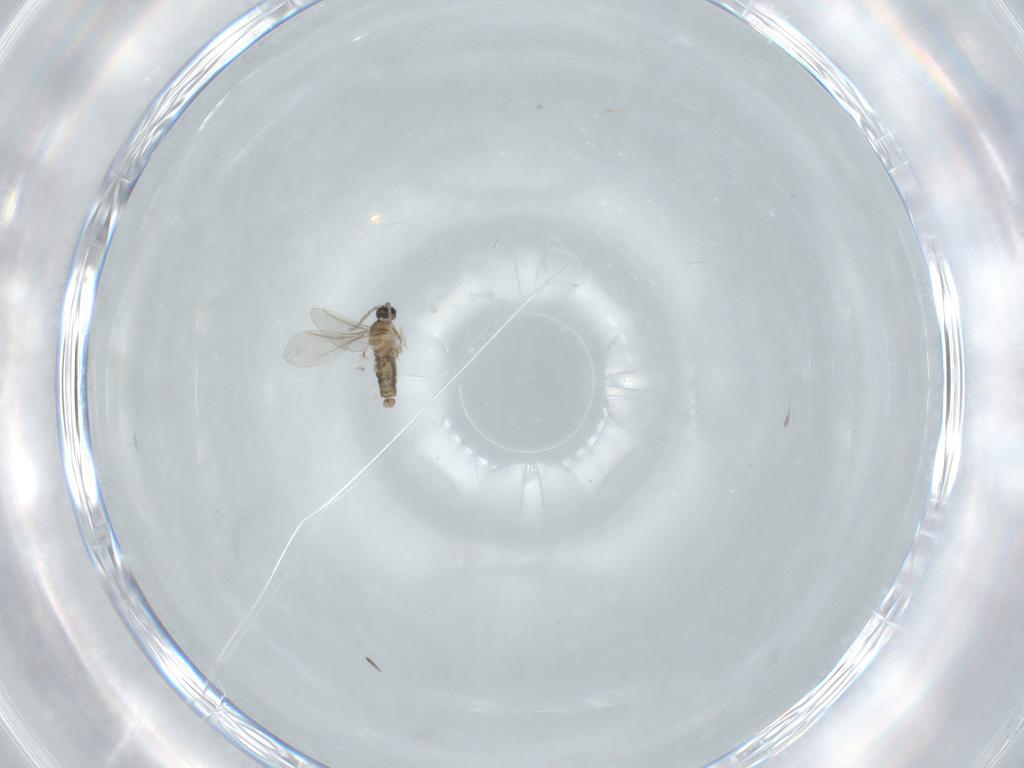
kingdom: Animalia
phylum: Arthropoda
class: Insecta
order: Diptera
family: Cecidomyiidae
